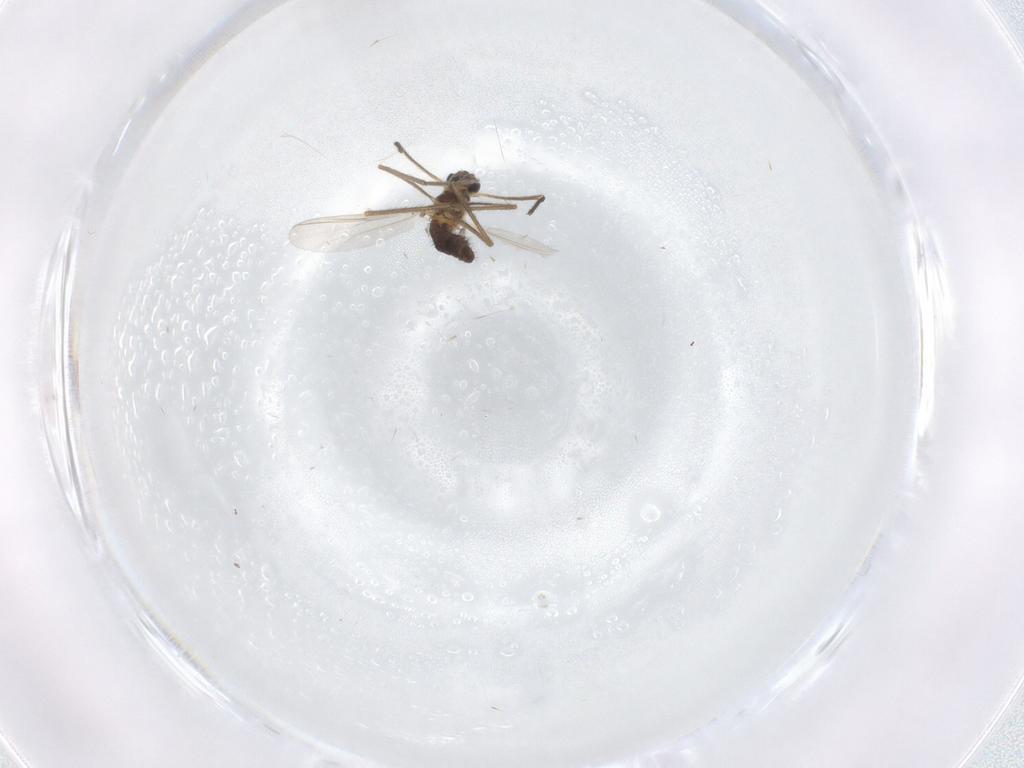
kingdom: Animalia
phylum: Arthropoda
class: Insecta
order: Diptera
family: Chironomidae
